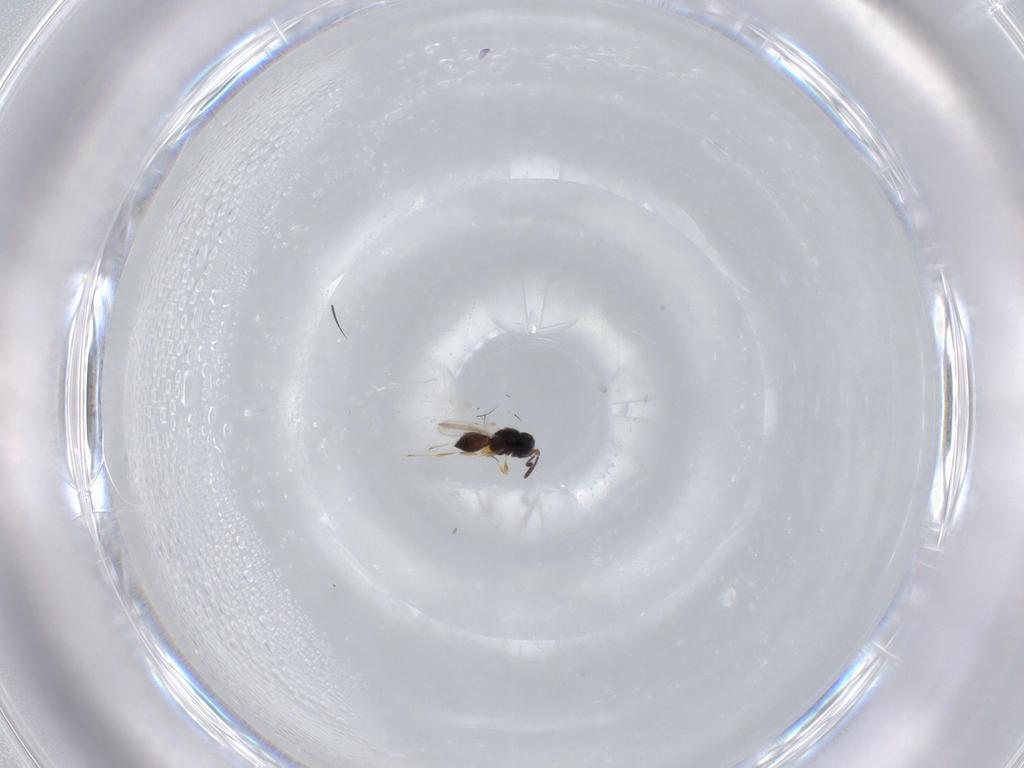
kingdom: Animalia
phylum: Arthropoda
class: Insecta
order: Hymenoptera
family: Scelionidae
